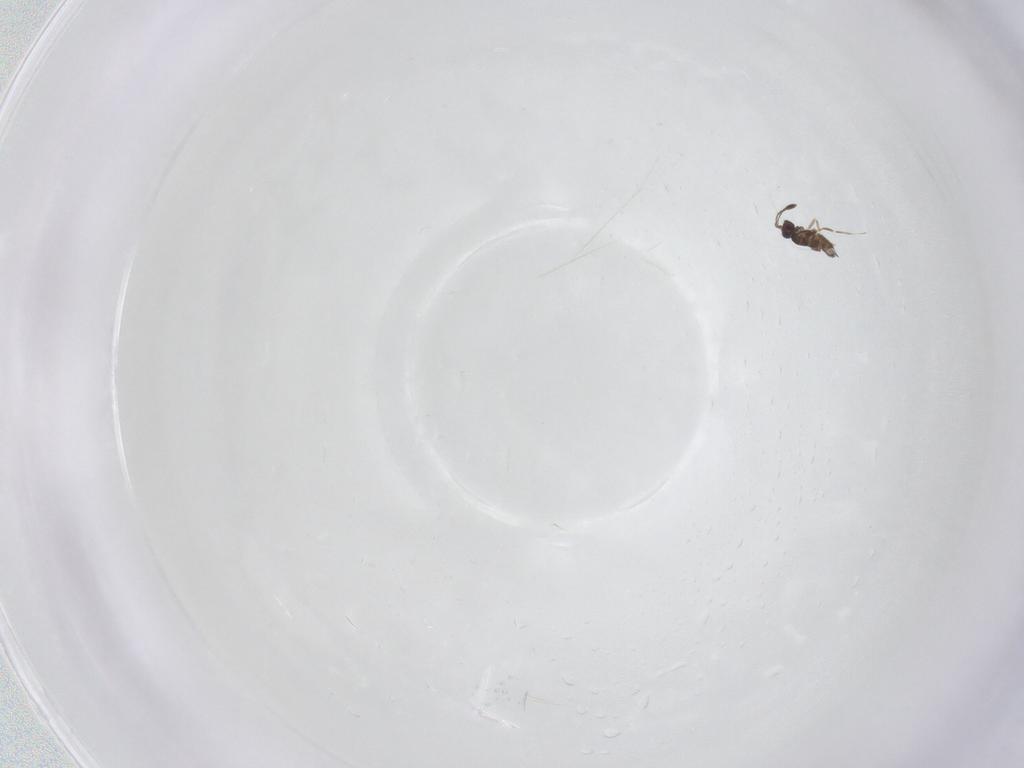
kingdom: Animalia
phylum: Arthropoda
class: Insecta
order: Hymenoptera
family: Mymaridae
